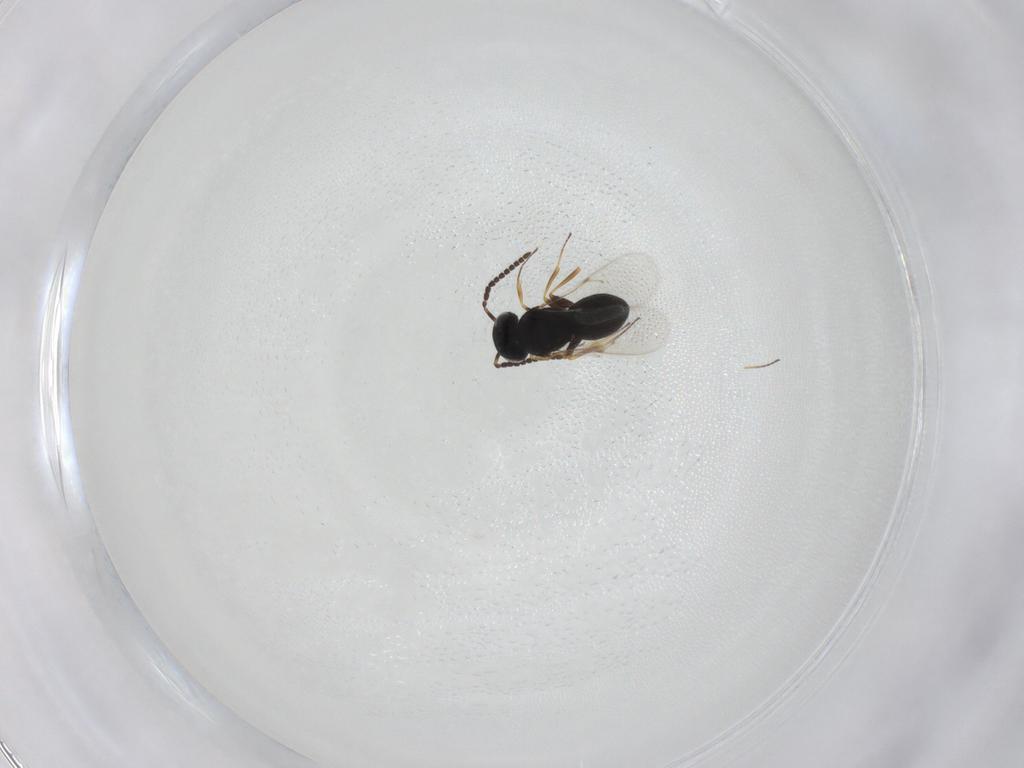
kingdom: Animalia
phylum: Arthropoda
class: Insecta
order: Hymenoptera
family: Scelionidae
